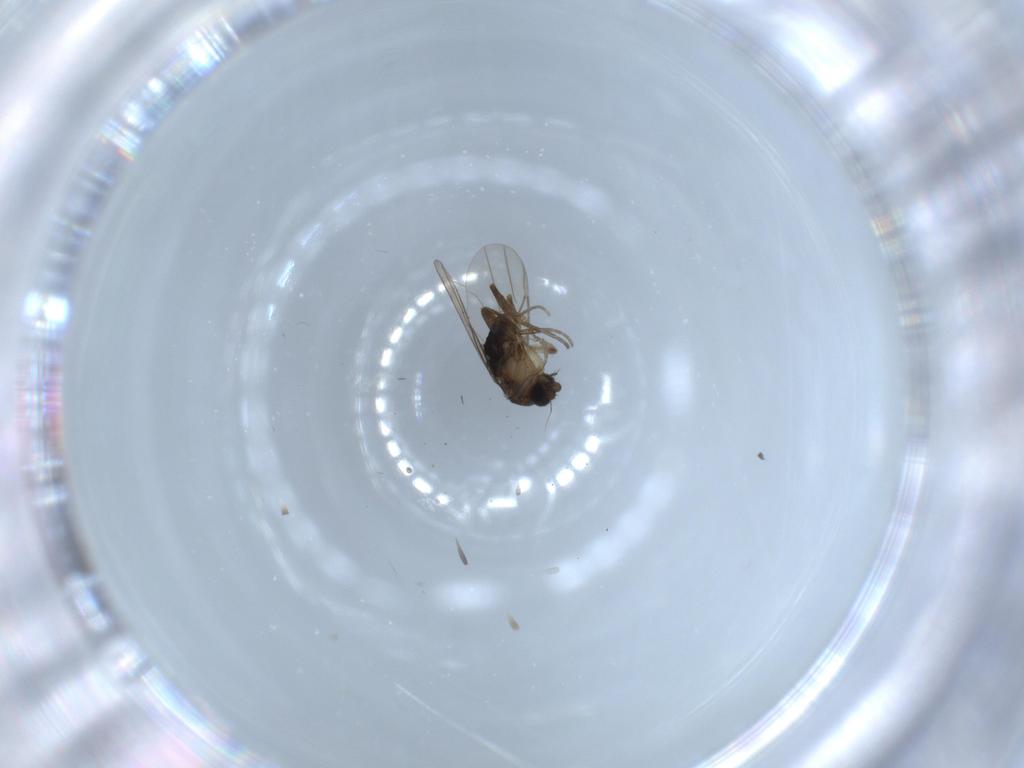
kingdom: Animalia
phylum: Arthropoda
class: Insecta
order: Diptera
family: Phoridae
